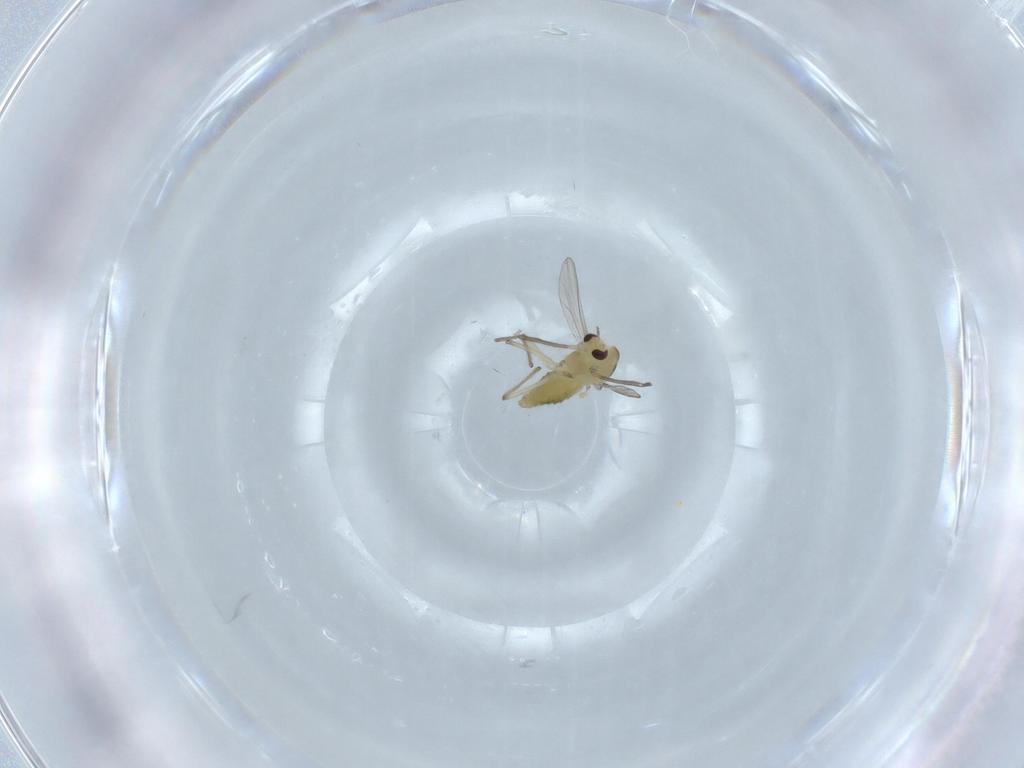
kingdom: Animalia
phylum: Arthropoda
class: Insecta
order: Diptera
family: Chironomidae
